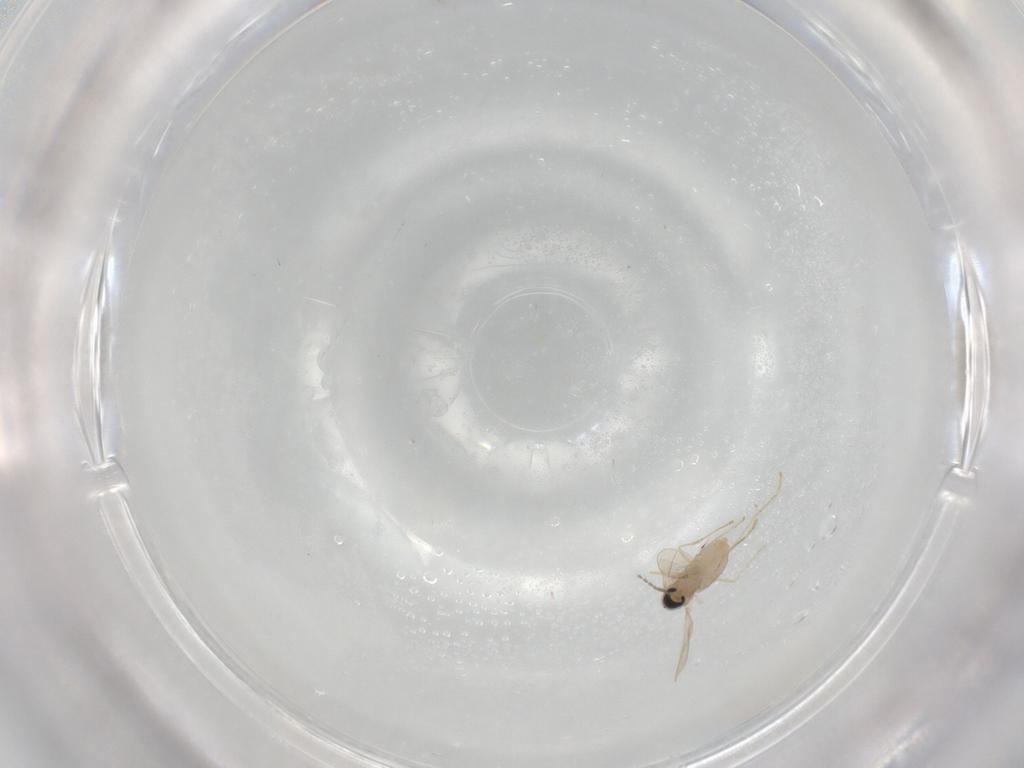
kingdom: Animalia
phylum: Arthropoda
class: Insecta
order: Diptera
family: Cecidomyiidae
